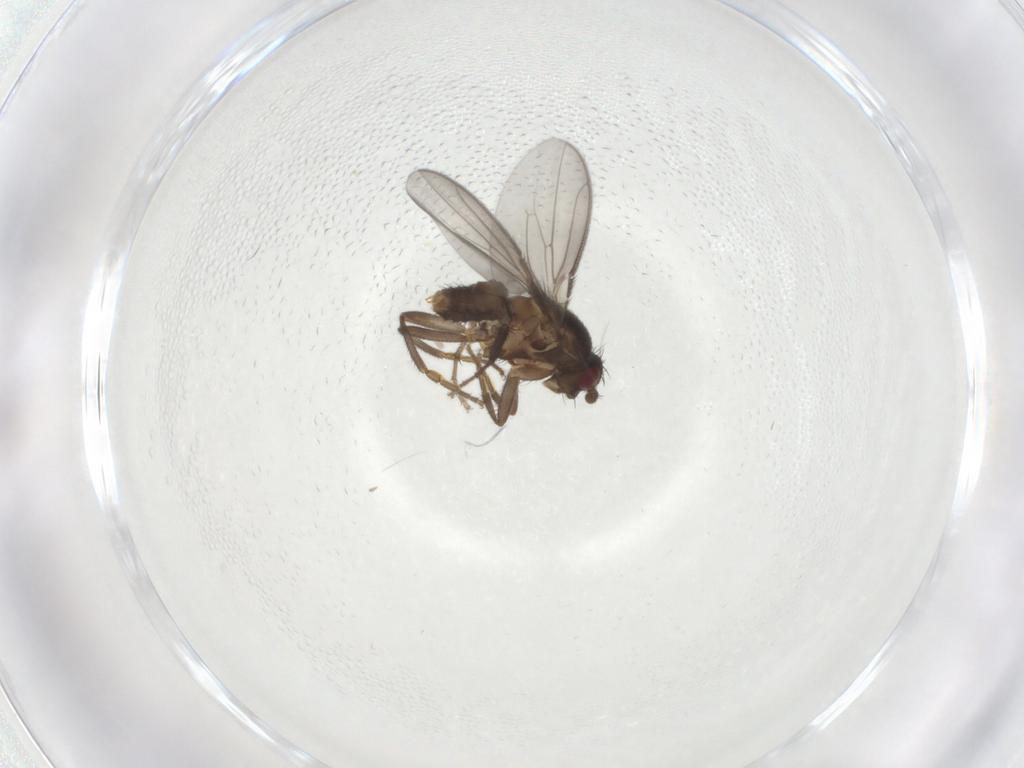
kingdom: Animalia
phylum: Arthropoda
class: Insecta
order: Diptera
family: Sphaeroceridae
